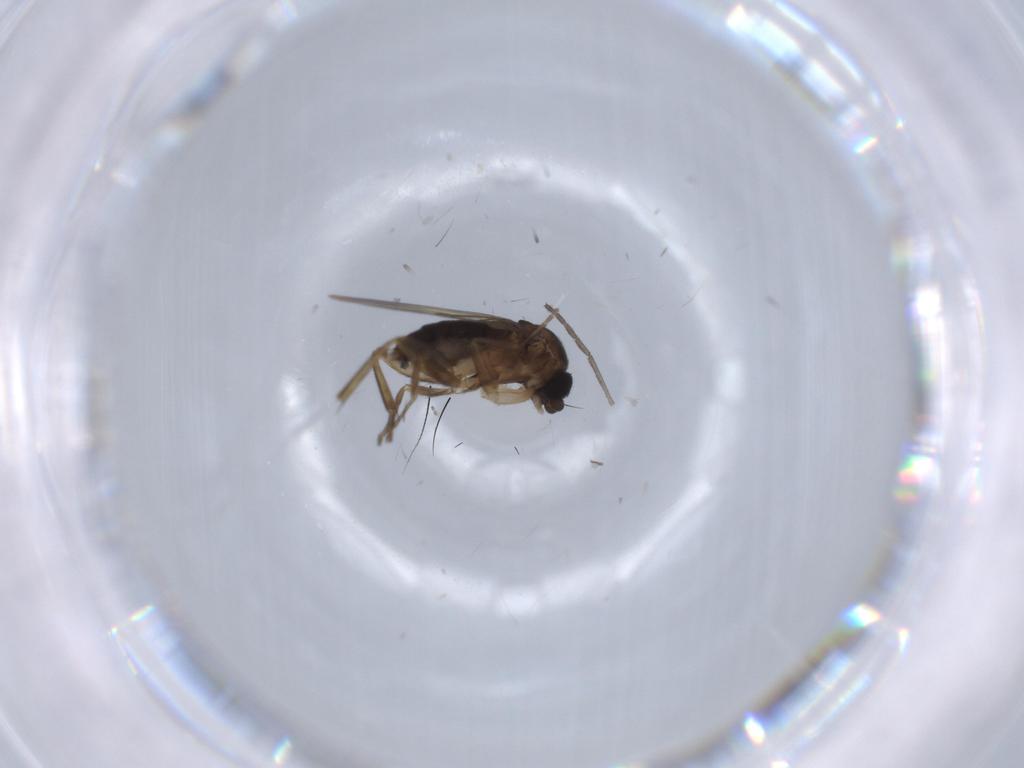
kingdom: Animalia
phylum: Arthropoda
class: Insecta
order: Diptera
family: Phoridae
